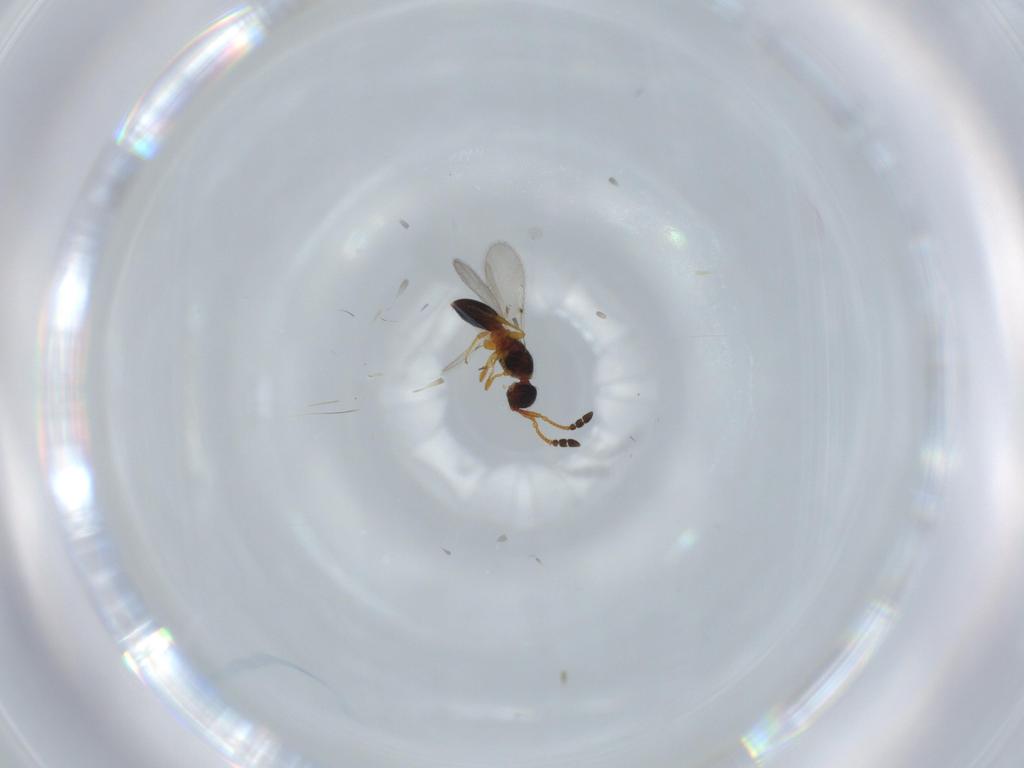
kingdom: Animalia
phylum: Arthropoda
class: Insecta
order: Hymenoptera
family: Diapriidae
